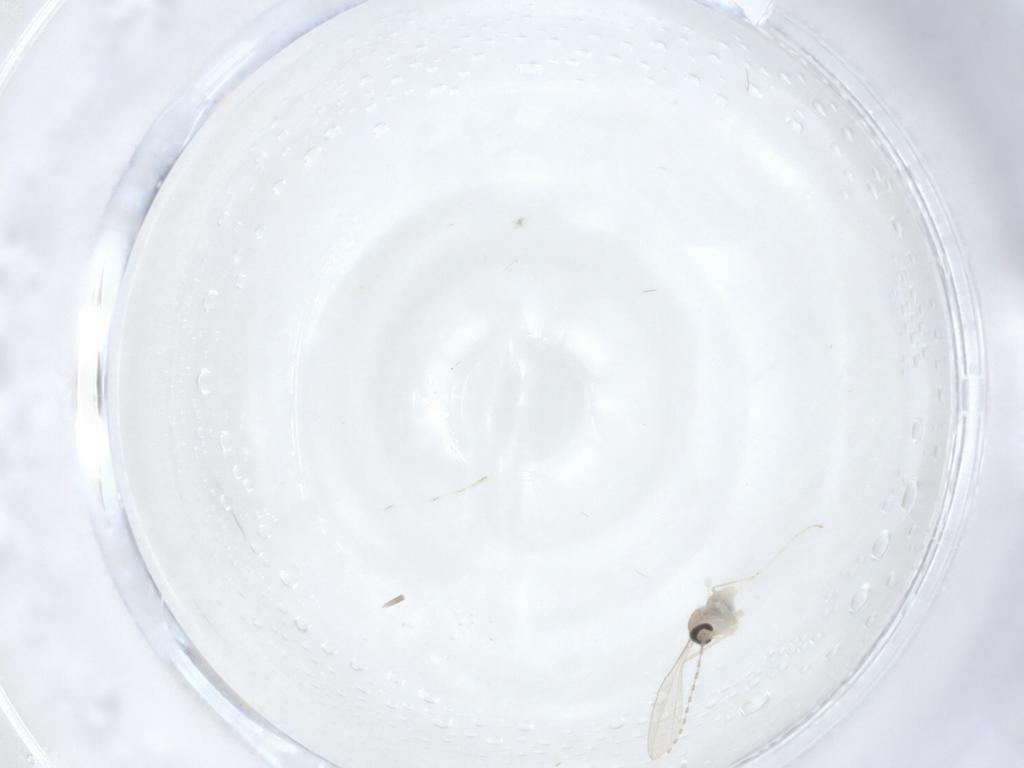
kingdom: Animalia
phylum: Arthropoda
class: Insecta
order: Diptera
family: Cecidomyiidae
